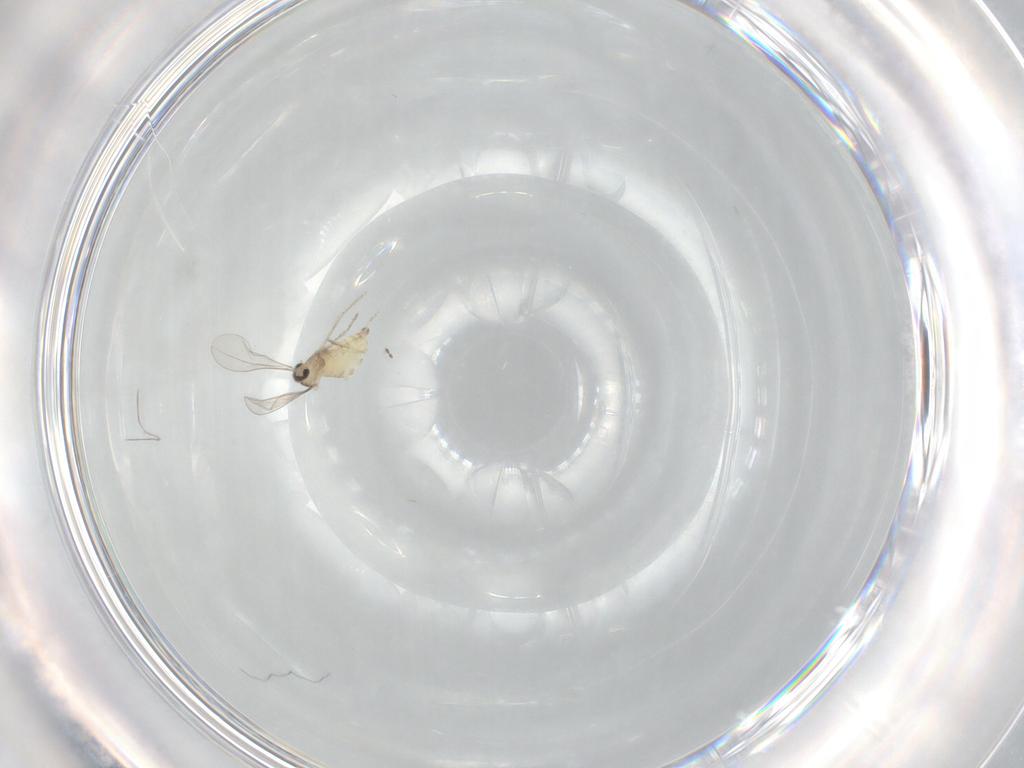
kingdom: Animalia
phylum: Arthropoda
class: Insecta
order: Diptera
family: Cecidomyiidae
